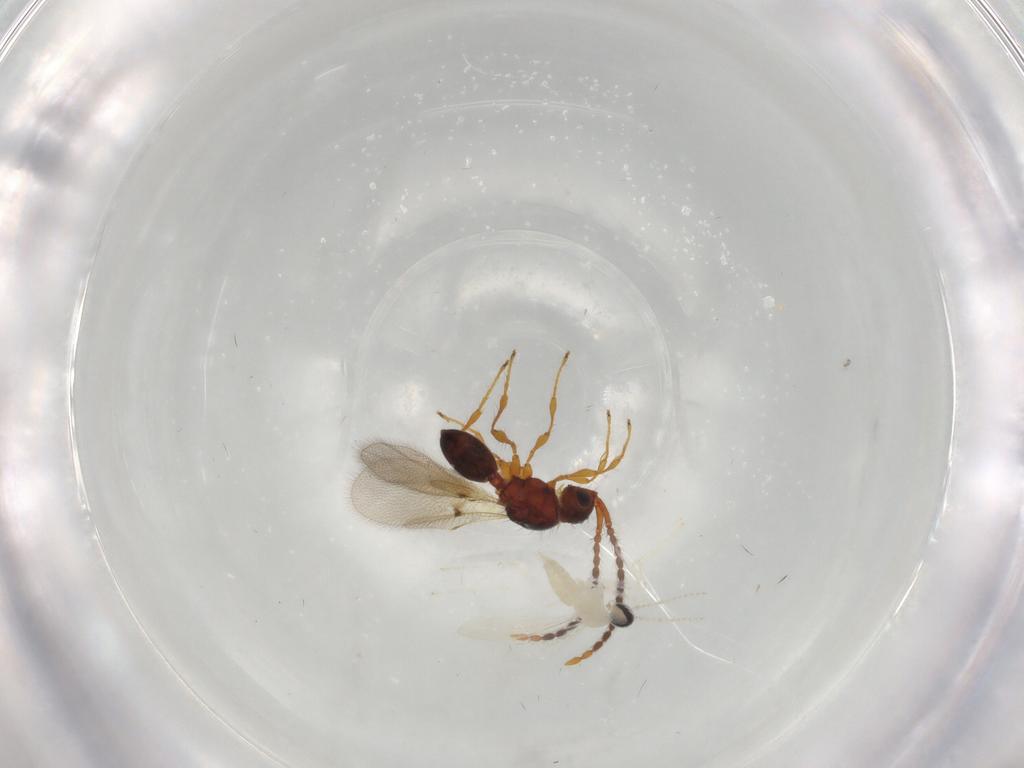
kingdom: Animalia
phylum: Arthropoda
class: Insecta
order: Diptera
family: Cecidomyiidae
